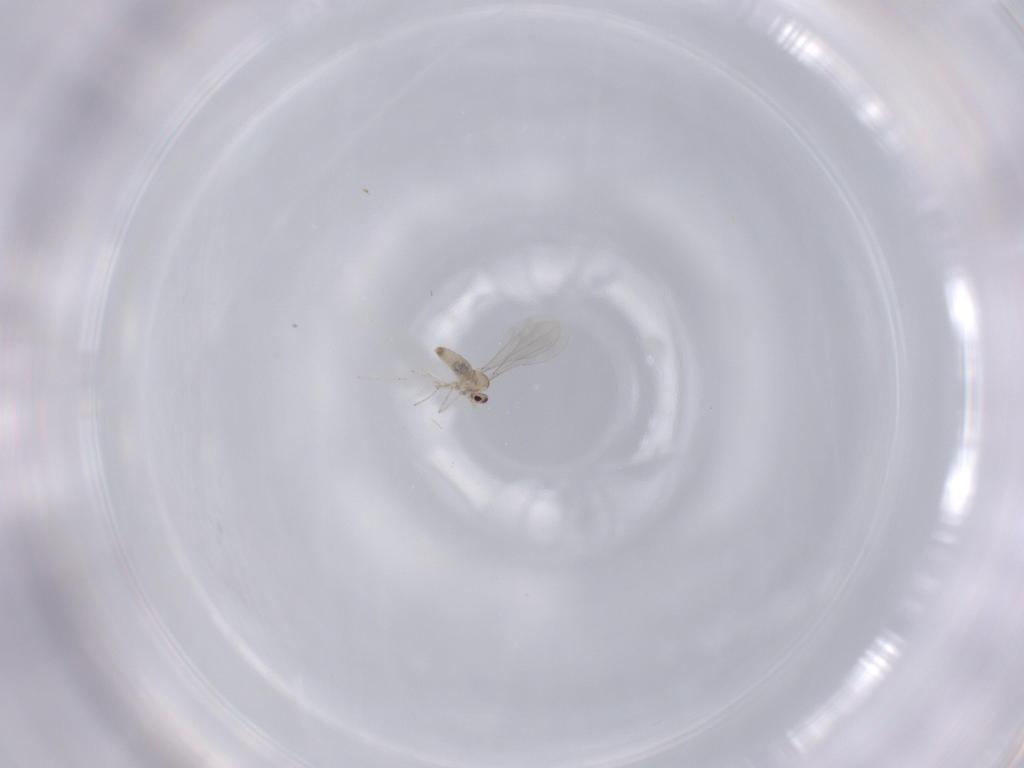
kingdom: Animalia
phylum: Arthropoda
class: Insecta
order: Diptera
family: Cecidomyiidae
